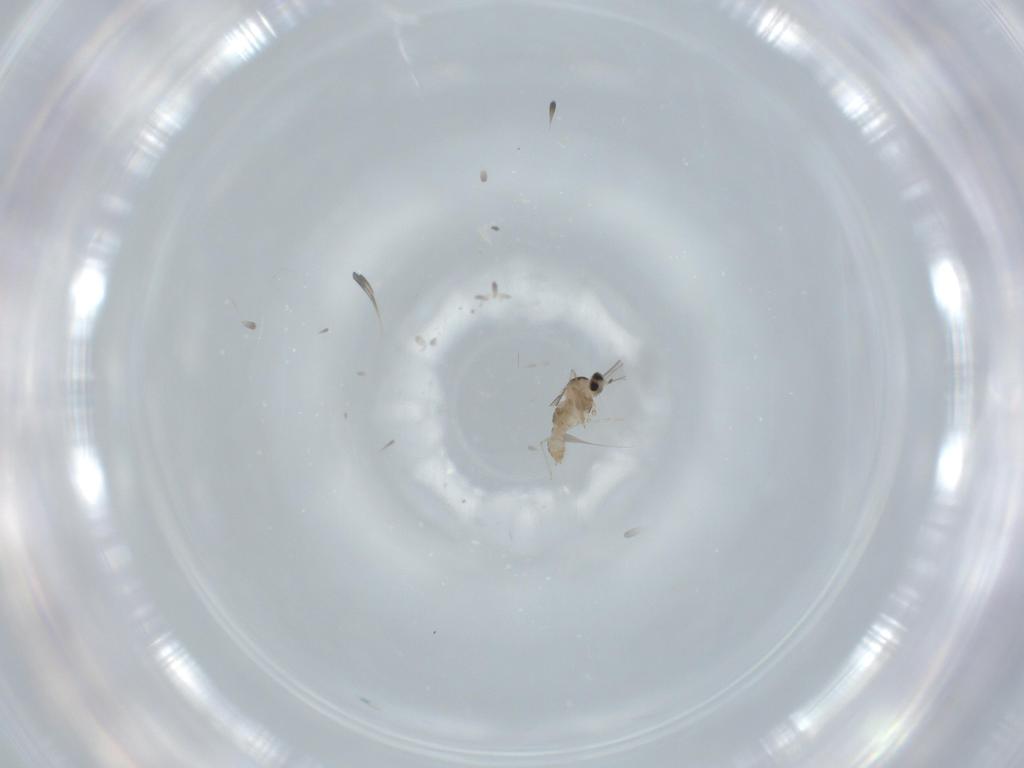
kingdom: Animalia
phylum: Arthropoda
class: Insecta
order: Diptera
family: Cecidomyiidae
